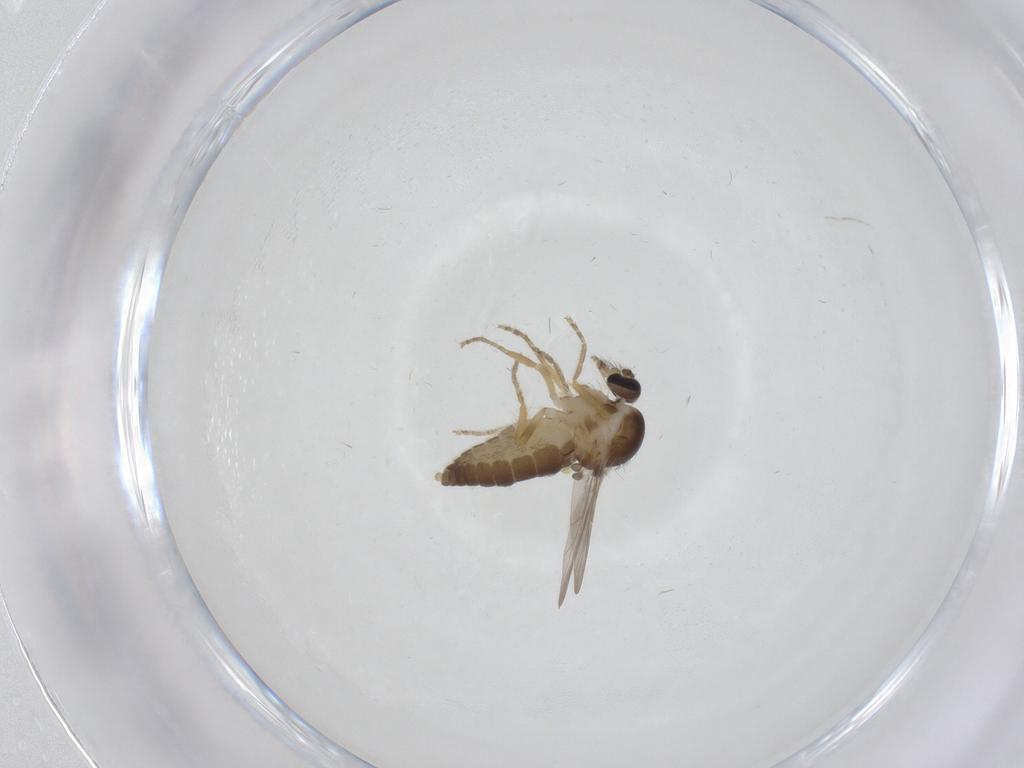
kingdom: Animalia
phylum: Arthropoda
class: Insecta
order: Diptera
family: Ceratopogonidae
